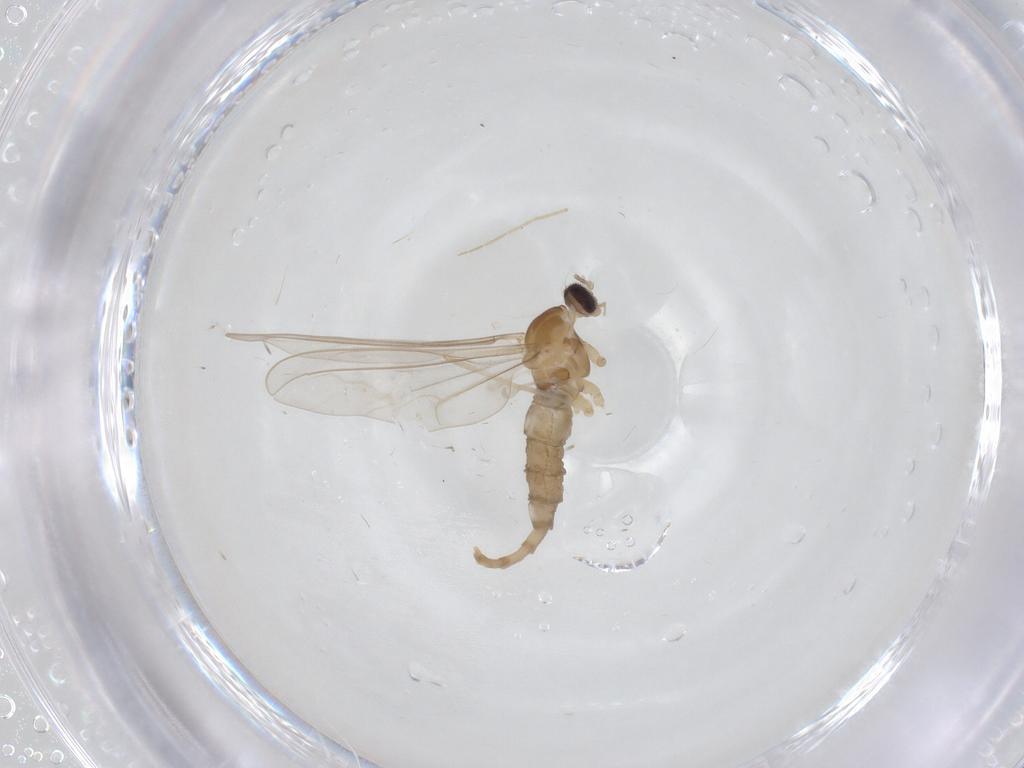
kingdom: Animalia
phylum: Arthropoda
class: Insecta
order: Diptera
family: Chironomidae
